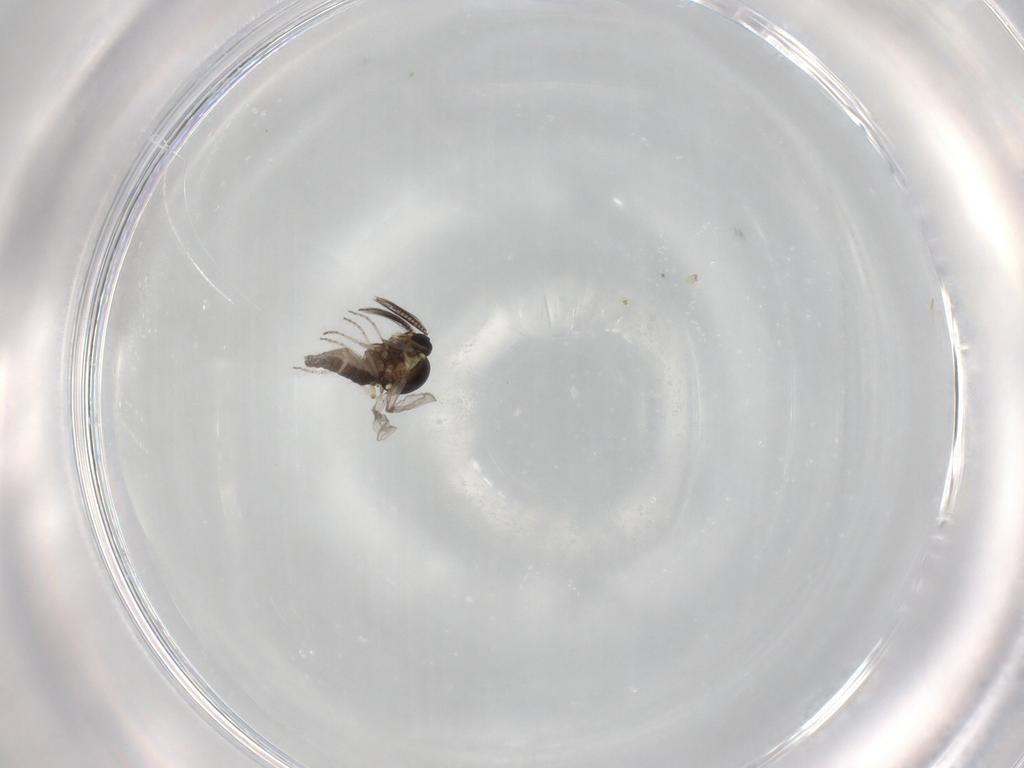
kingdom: Animalia
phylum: Arthropoda
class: Insecta
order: Diptera
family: Ceratopogonidae
